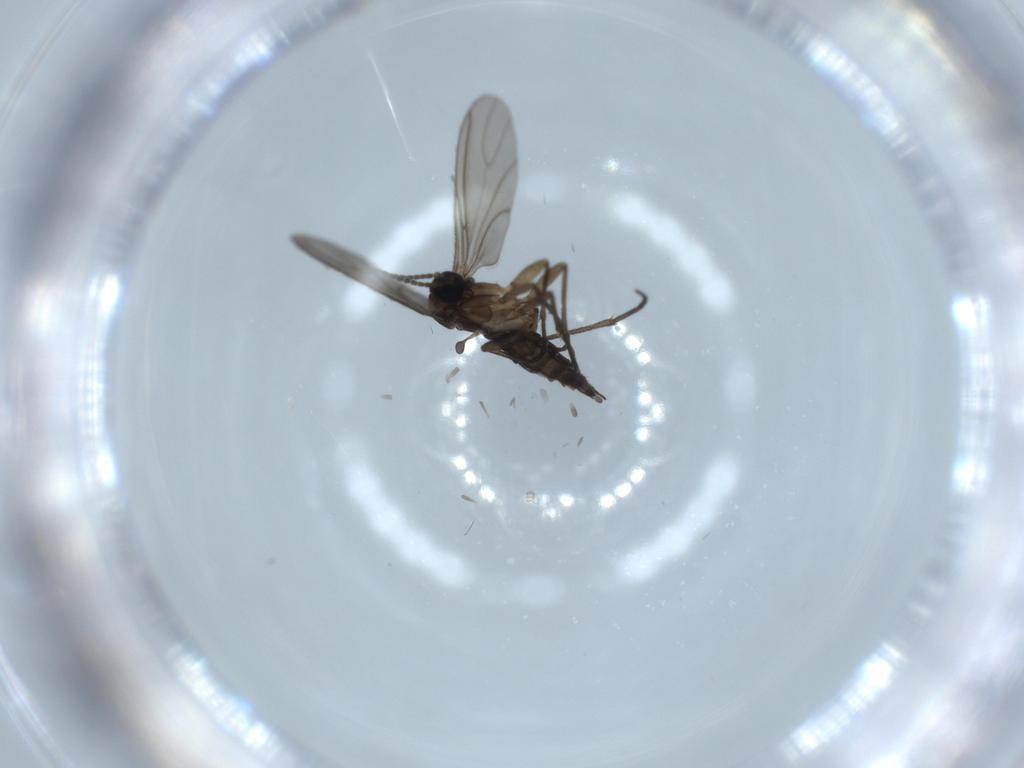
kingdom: Animalia
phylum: Arthropoda
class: Insecta
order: Diptera
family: Sciaridae
